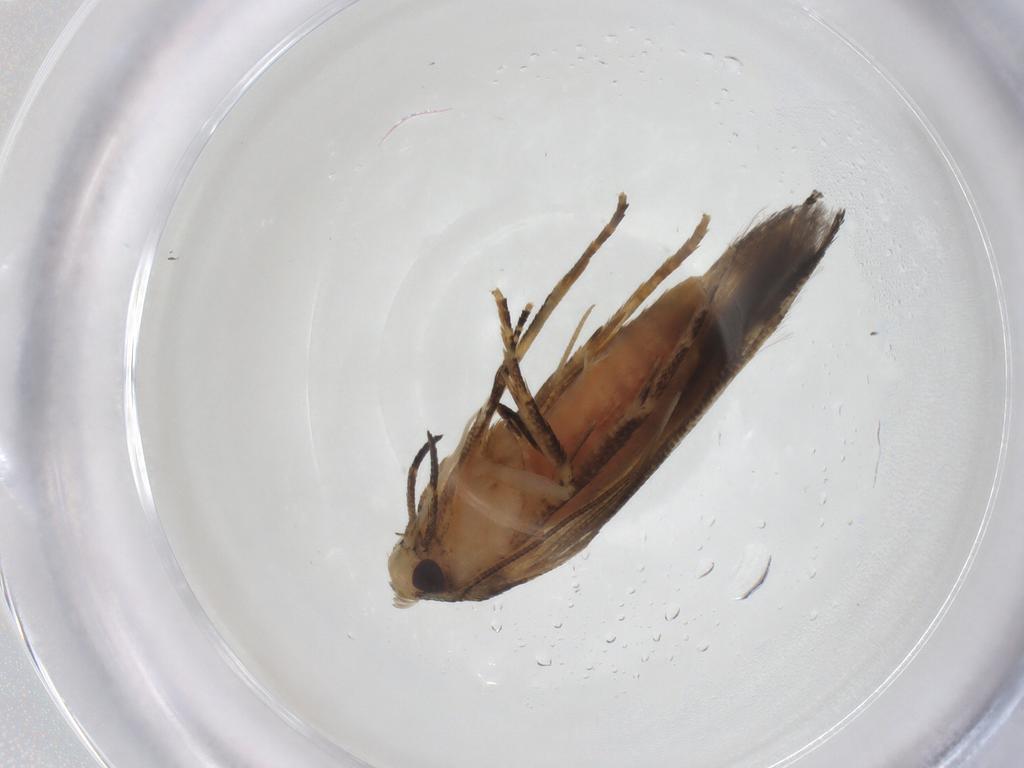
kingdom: Animalia
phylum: Arthropoda
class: Insecta
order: Lepidoptera
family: Cosmopterigidae
